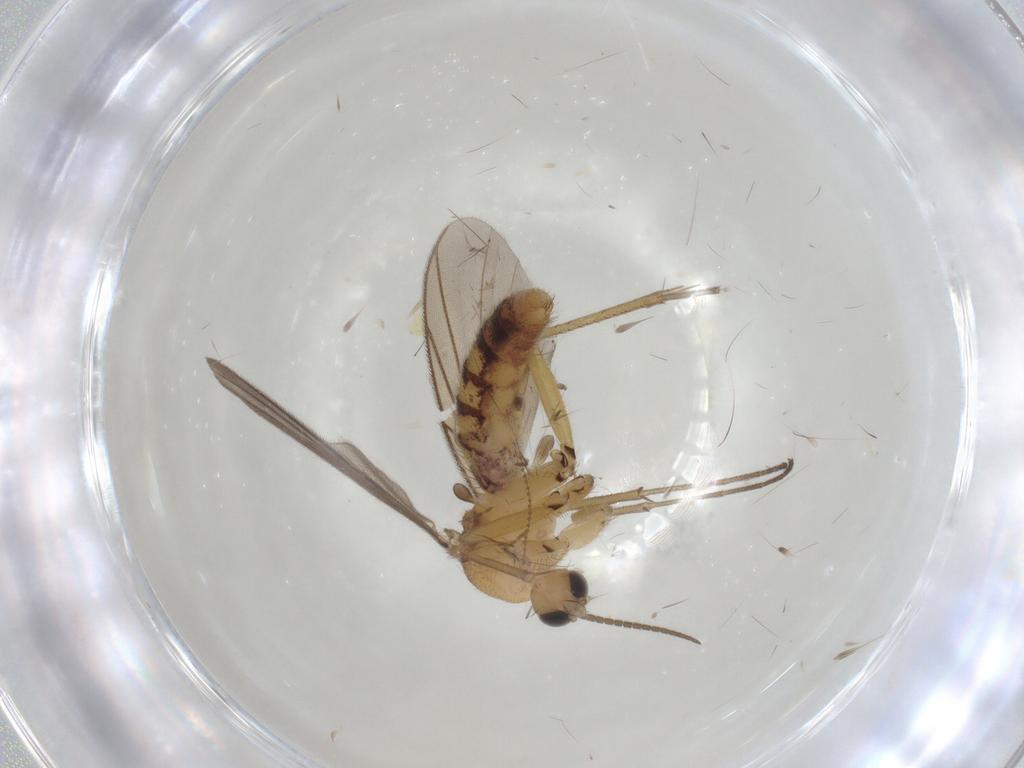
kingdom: Animalia
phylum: Arthropoda
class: Insecta
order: Diptera
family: Mycetophilidae
